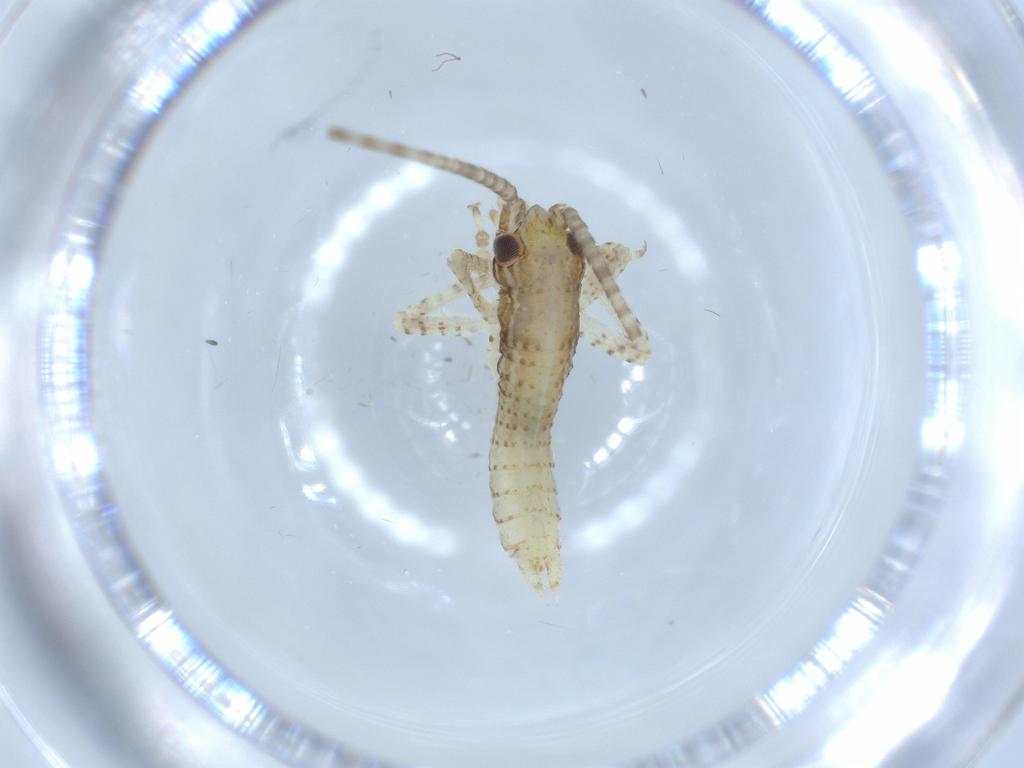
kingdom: Animalia
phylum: Arthropoda
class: Insecta
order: Orthoptera
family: Gryllidae
